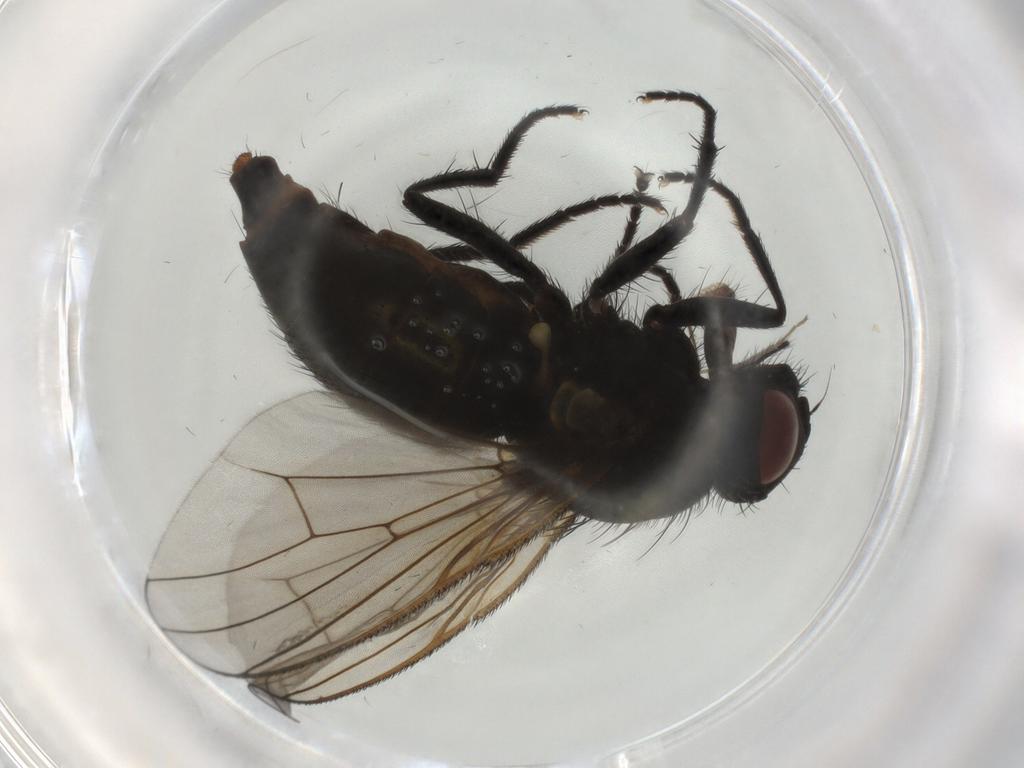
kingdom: Animalia
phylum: Arthropoda
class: Insecta
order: Diptera
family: Muscidae
